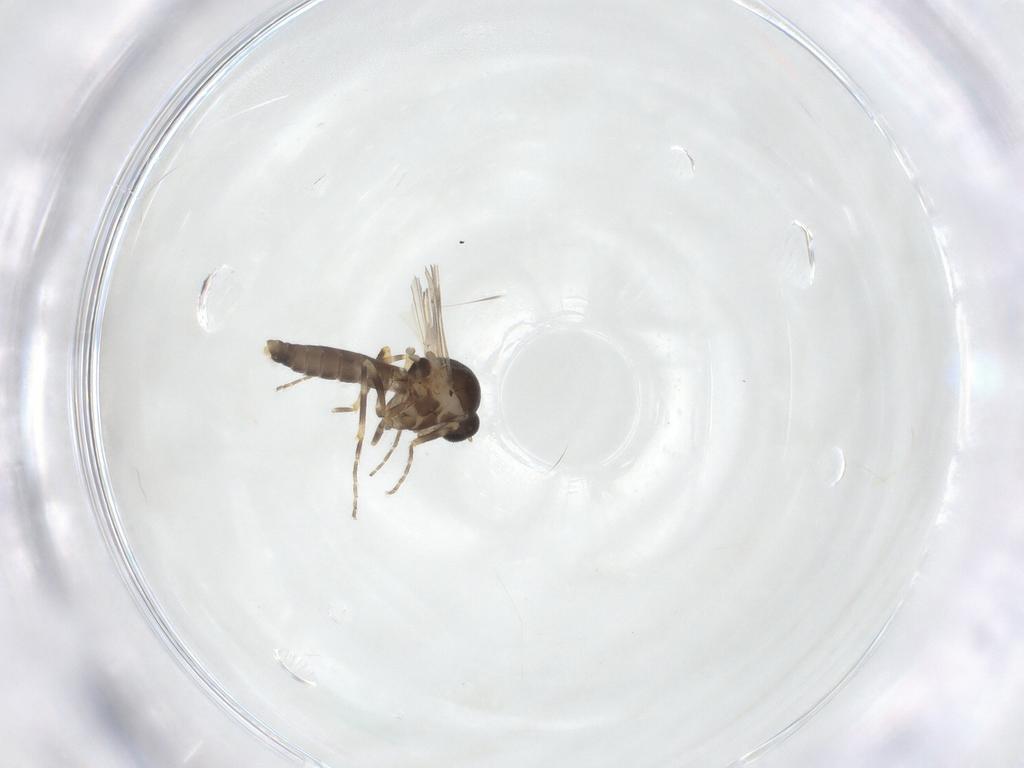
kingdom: Animalia
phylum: Arthropoda
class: Insecta
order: Diptera
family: Ceratopogonidae
